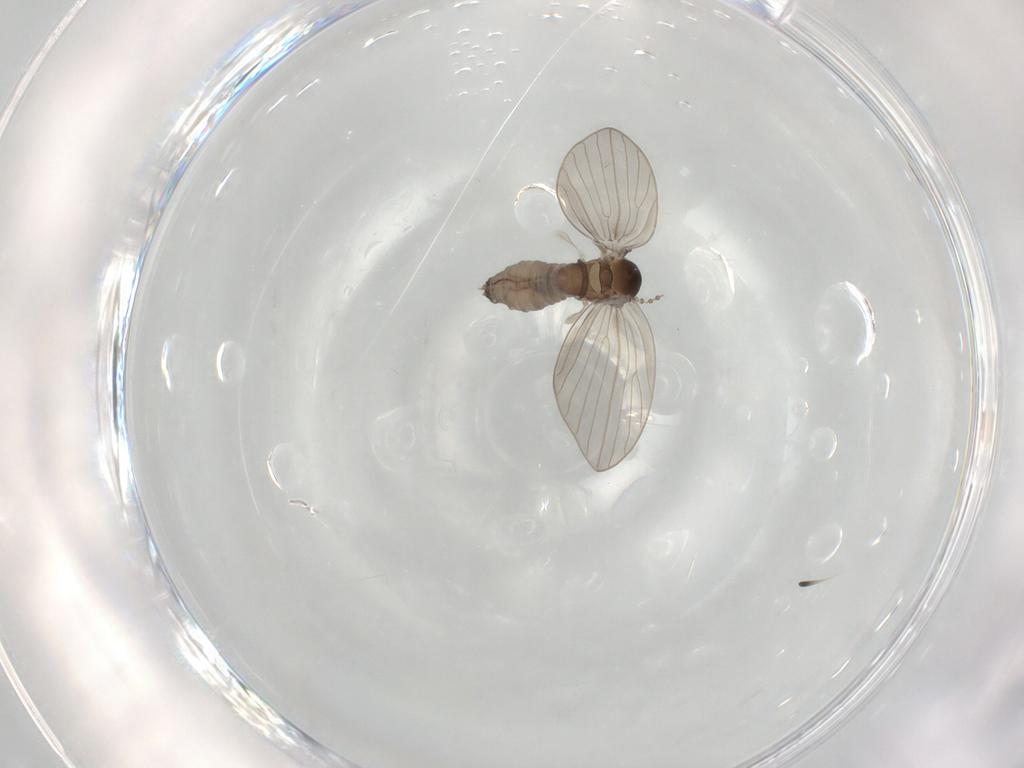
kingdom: Animalia
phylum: Arthropoda
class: Insecta
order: Diptera
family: Psychodidae
